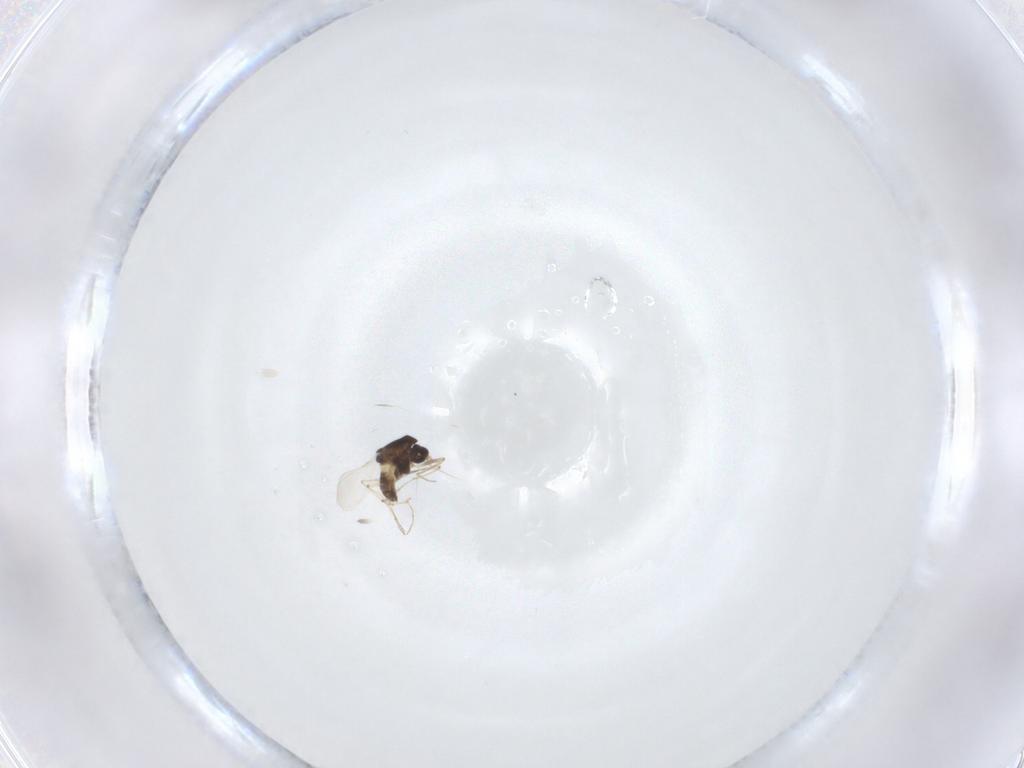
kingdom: Animalia
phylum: Arthropoda
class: Insecta
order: Diptera
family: Chironomidae
